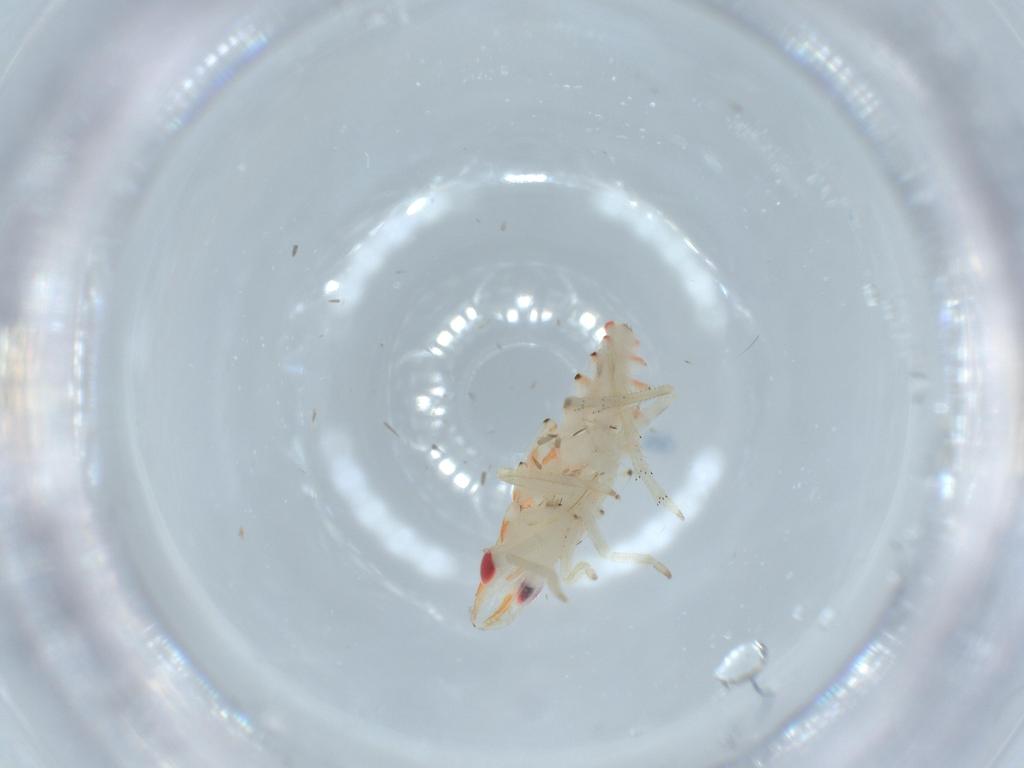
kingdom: Animalia
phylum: Arthropoda
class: Insecta
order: Hemiptera
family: Tropiduchidae
